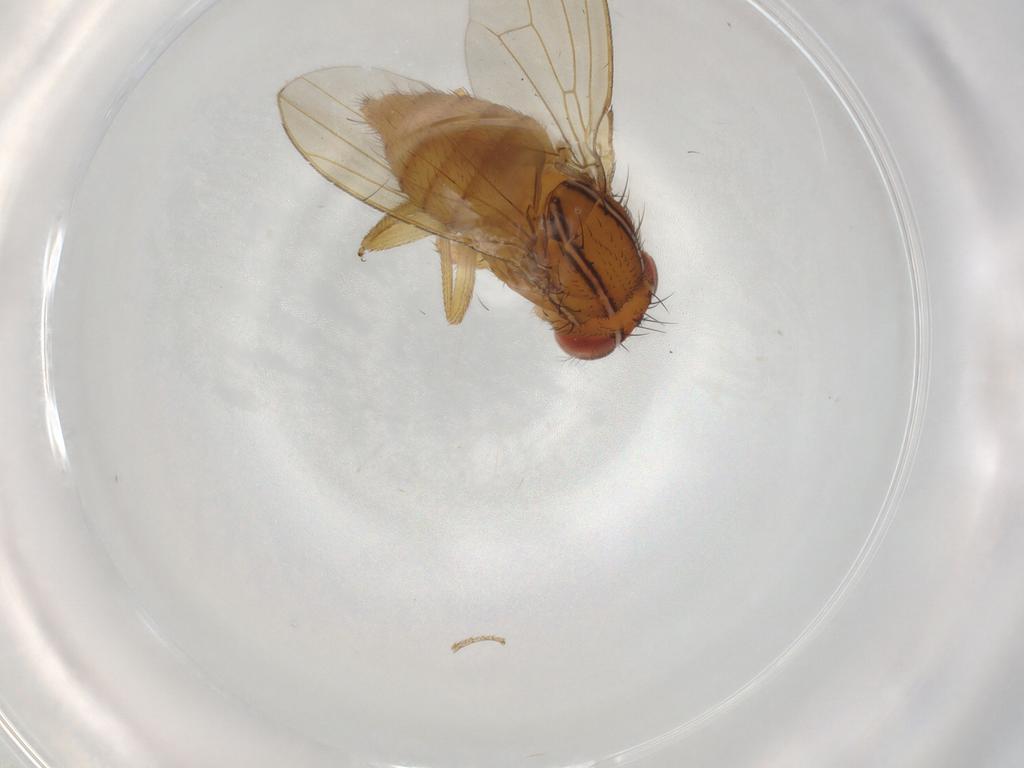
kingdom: Animalia
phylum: Arthropoda
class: Insecta
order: Diptera
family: Drosophilidae
